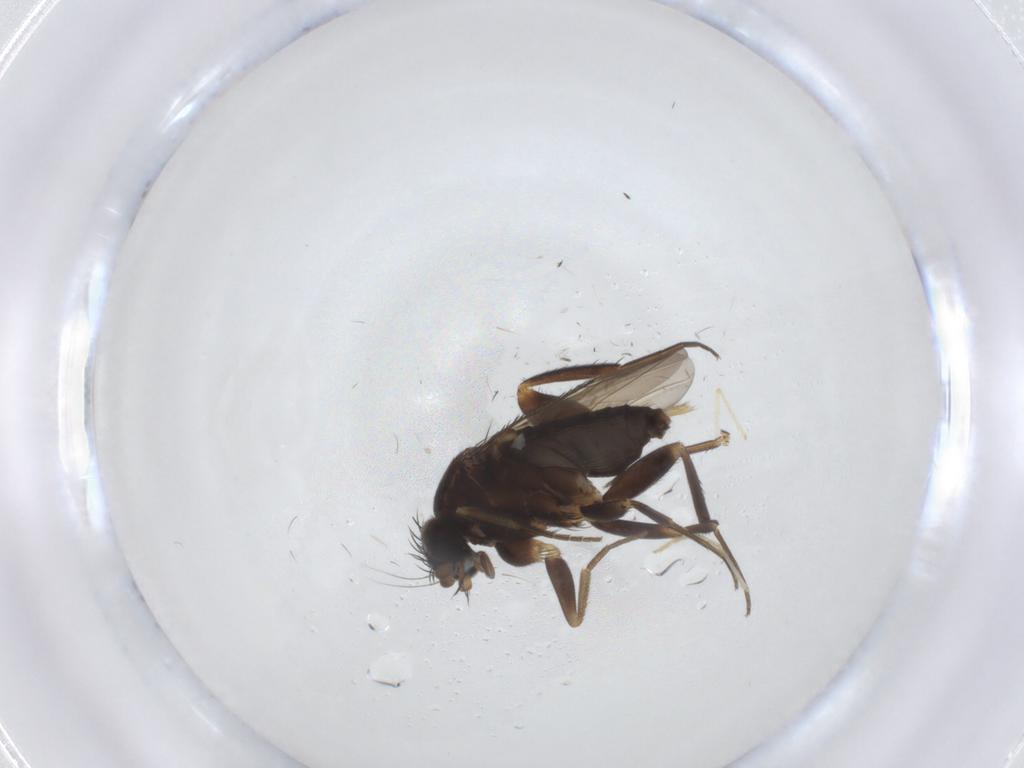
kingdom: Animalia
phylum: Arthropoda
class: Insecta
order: Diptera
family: Phoridae
